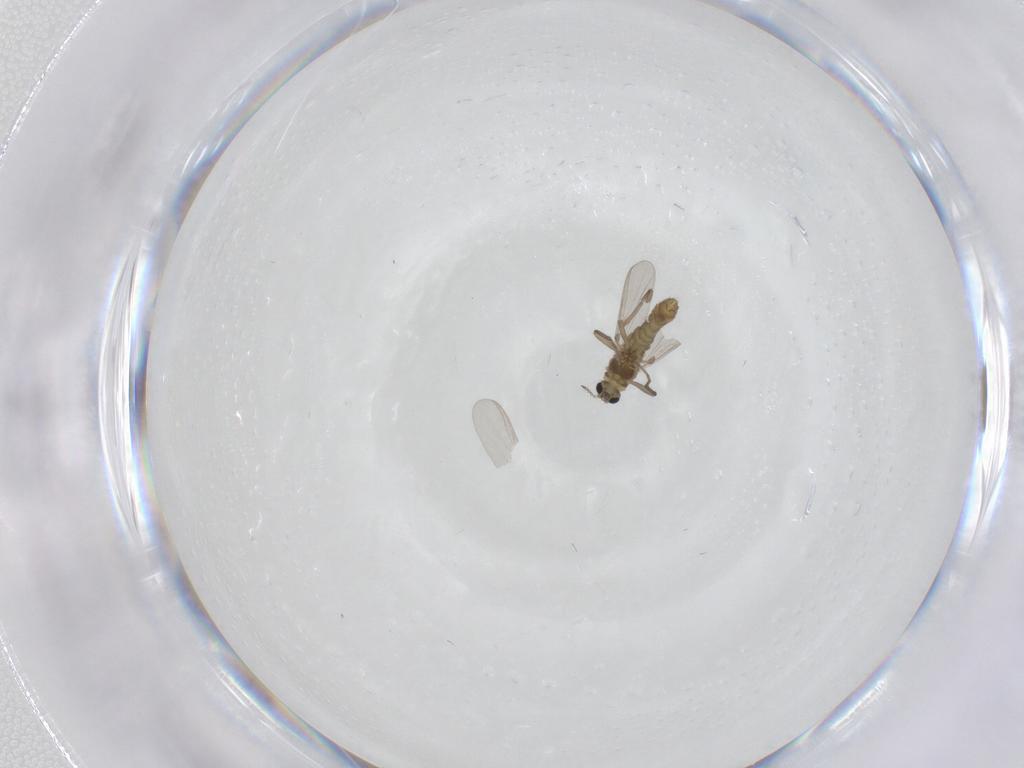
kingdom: Animalia
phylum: Arthropoda
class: Insecta
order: Diptera
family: Chironomidae
